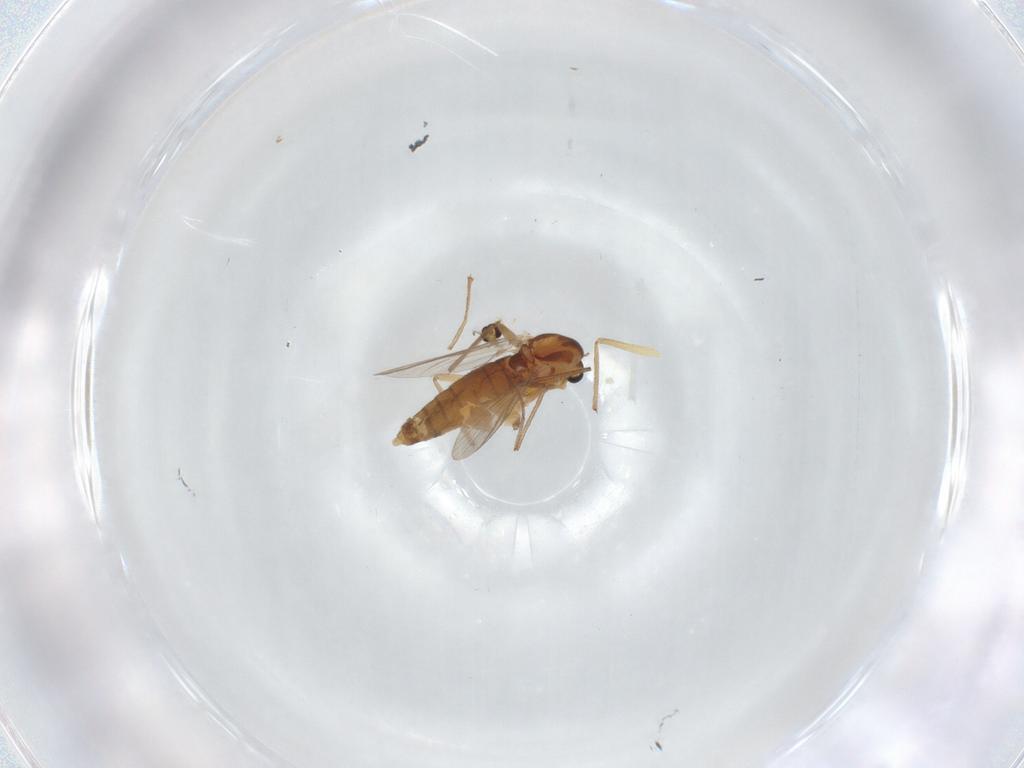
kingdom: Animalia
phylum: Arthropoda
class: Insecta
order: Diptera
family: Chironomidae
